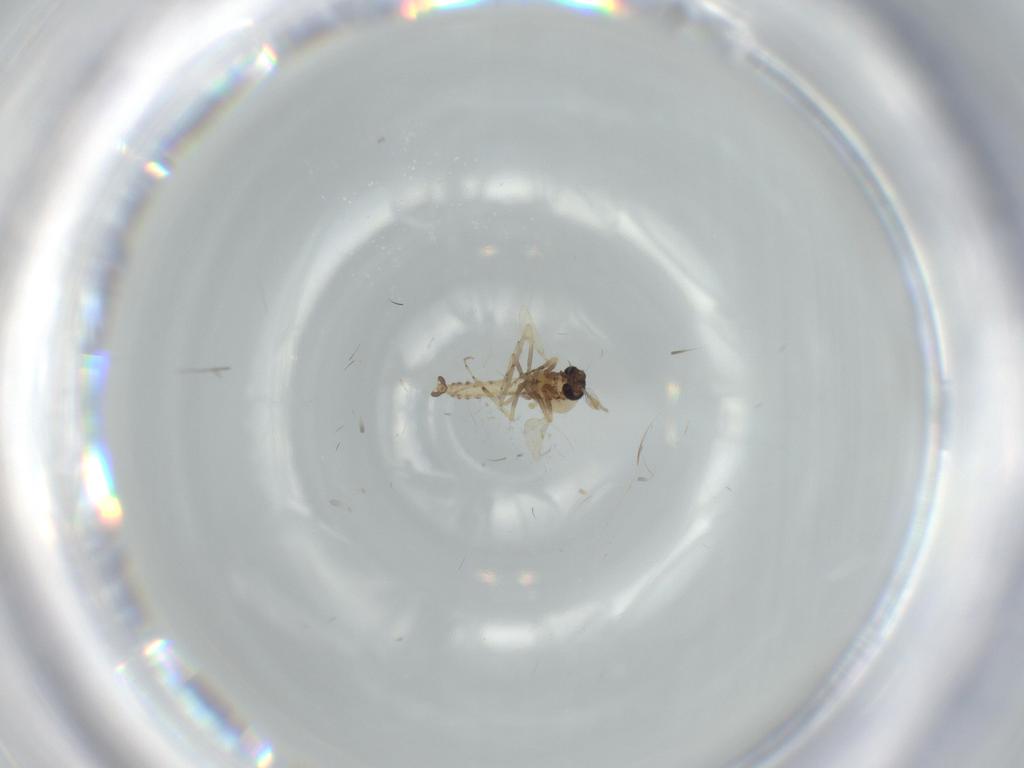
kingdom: Animalia
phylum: Arthropoda
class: Insecta
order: Diptera
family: Ceratopogonidae
